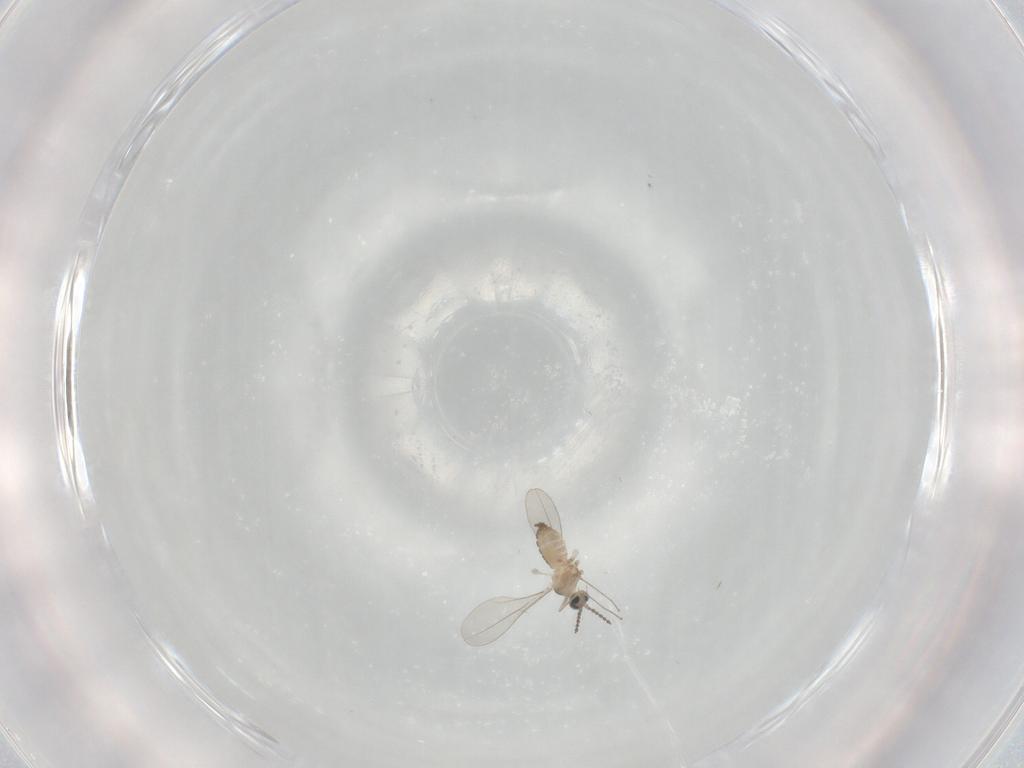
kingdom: Animalia
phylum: Arthropoda
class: Insecta
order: Diptera
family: Cecidomyiidae
